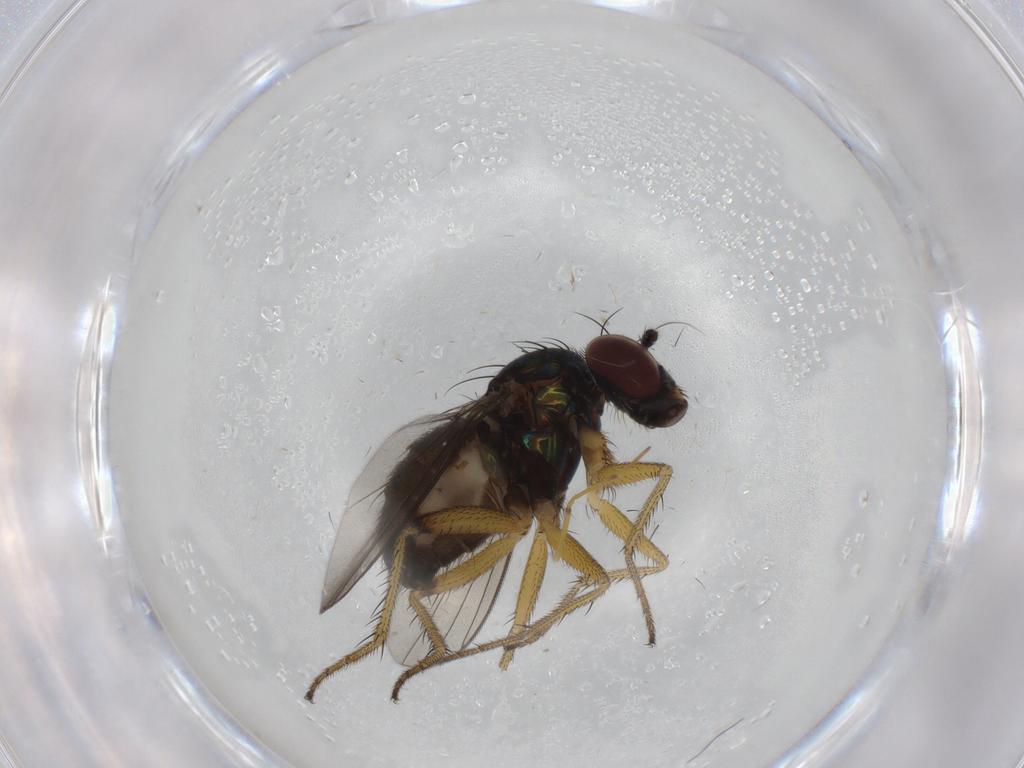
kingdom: Animalia
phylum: Arthropoda
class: Insecta
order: Diptera
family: Dolichopodidae
